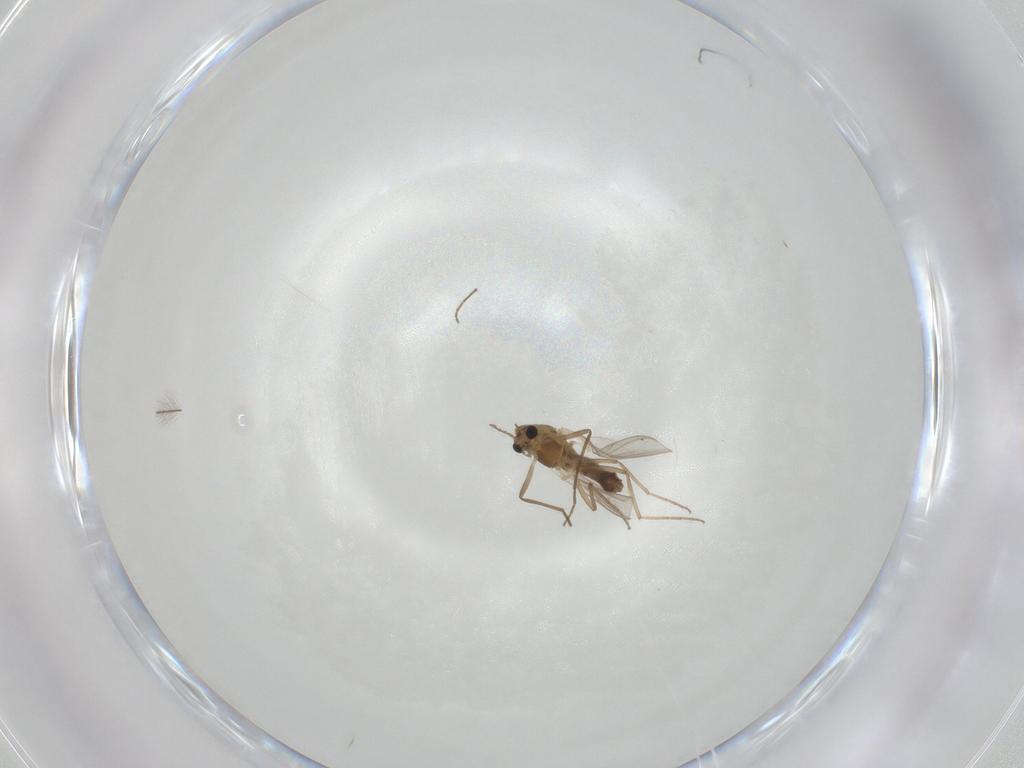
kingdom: Animalia
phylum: Arthropoda
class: Insecta
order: Diptera
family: Chironomidae
